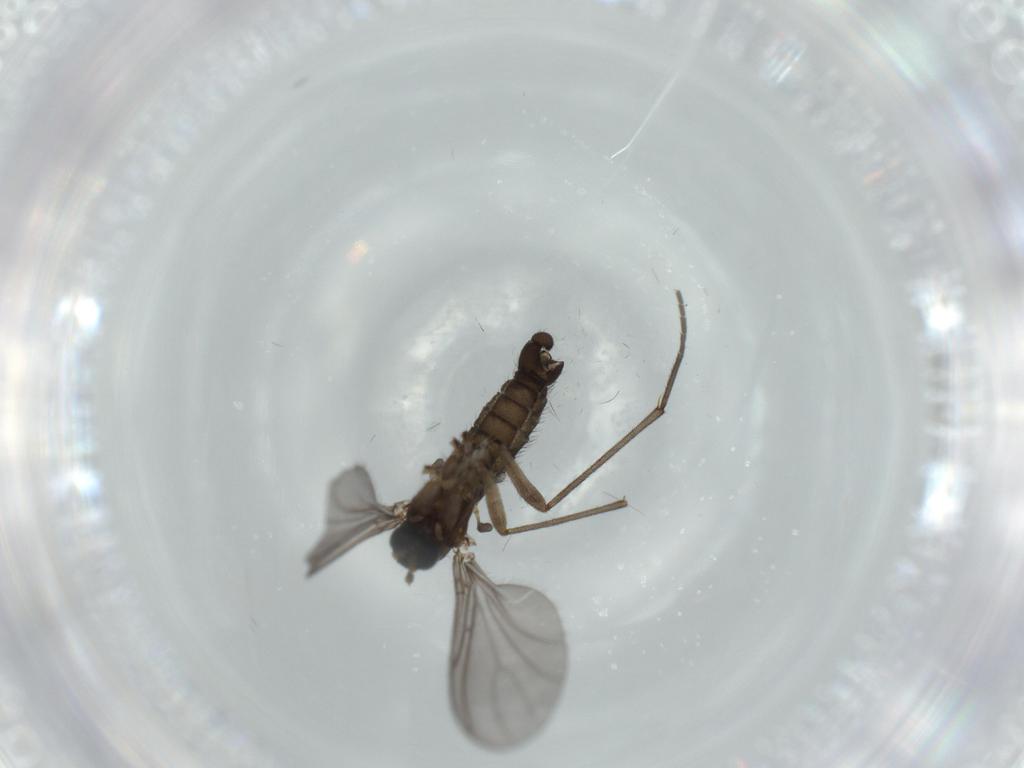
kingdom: Animalia
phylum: Arthropoda
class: Insecta
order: Diptera
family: Sciaridae
